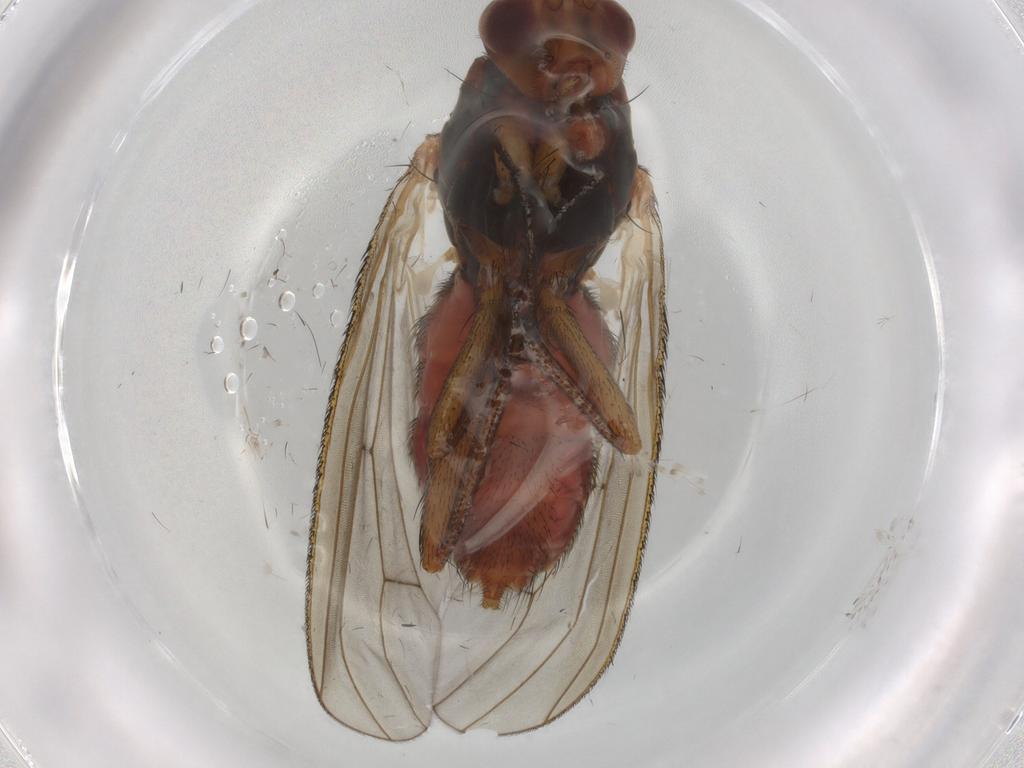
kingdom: Animalia
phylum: Arthropoda
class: Insecta
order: Diptera
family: Heleomyzidae
